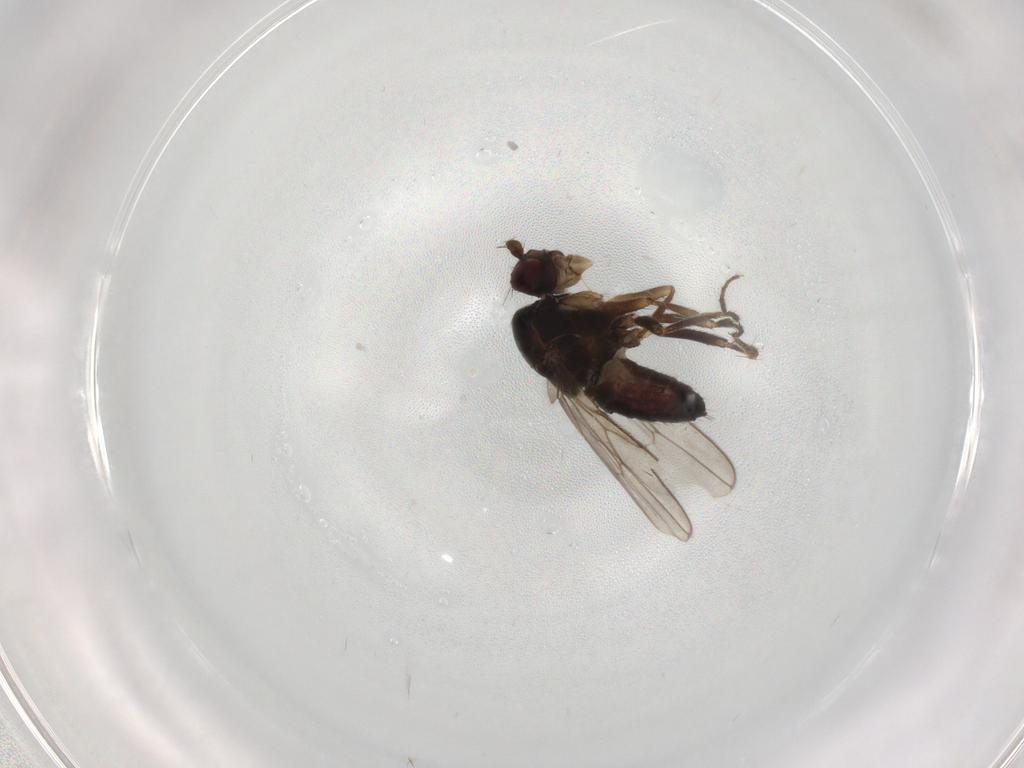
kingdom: Animalia
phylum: Arthropoda
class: Insecta
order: Diptera
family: Sphaeroceridae
